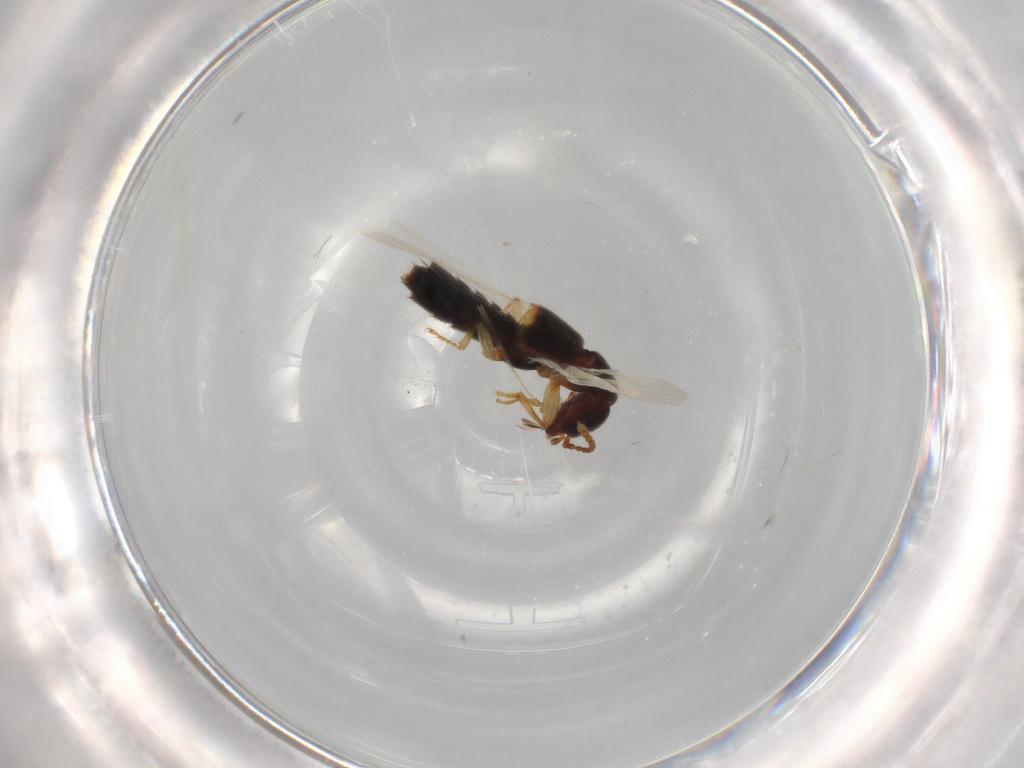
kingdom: Animalia
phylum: Arthropoda
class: Insecta
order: Coleoptera
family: Staphylinidae
